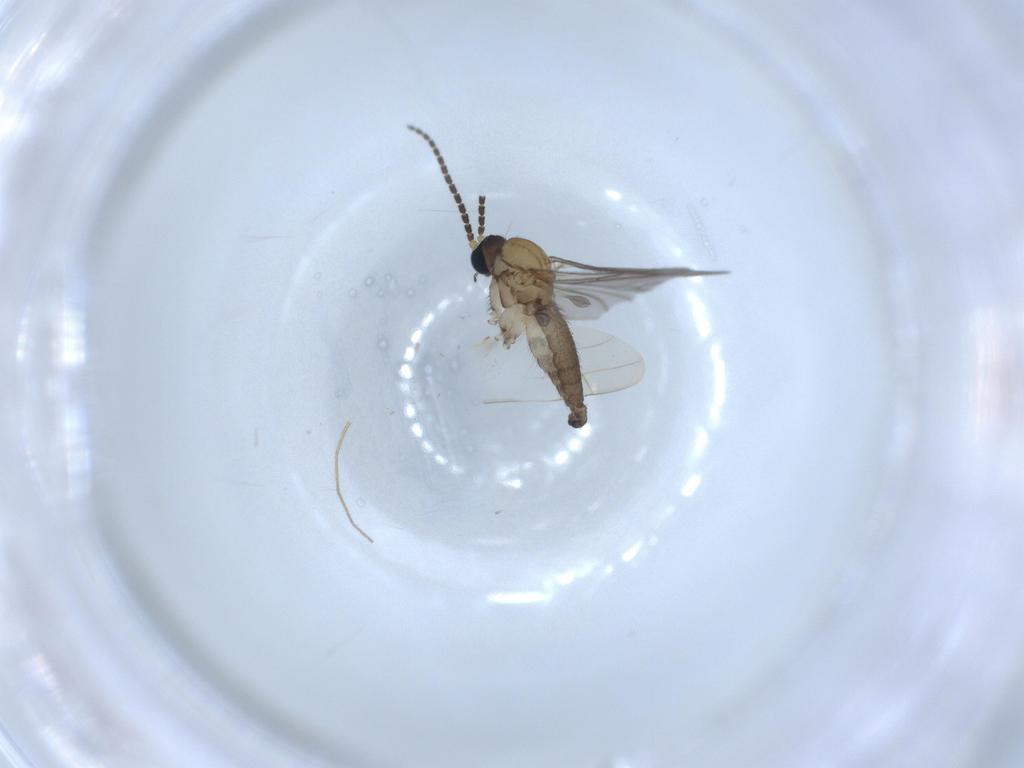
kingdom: Animalia
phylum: Arthropoda
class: Insecta
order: Diptera
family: Sciaridae
